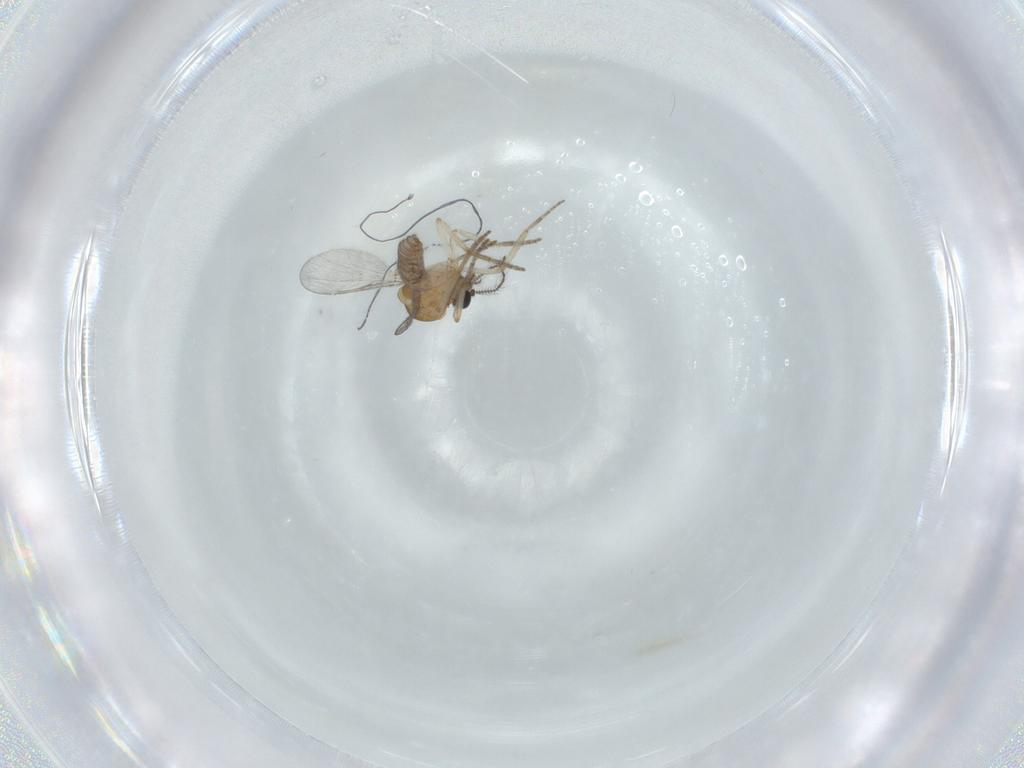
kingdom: Animalia
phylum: Arthropoda
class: Insecta
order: Diptera
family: Ceratopogonidae
